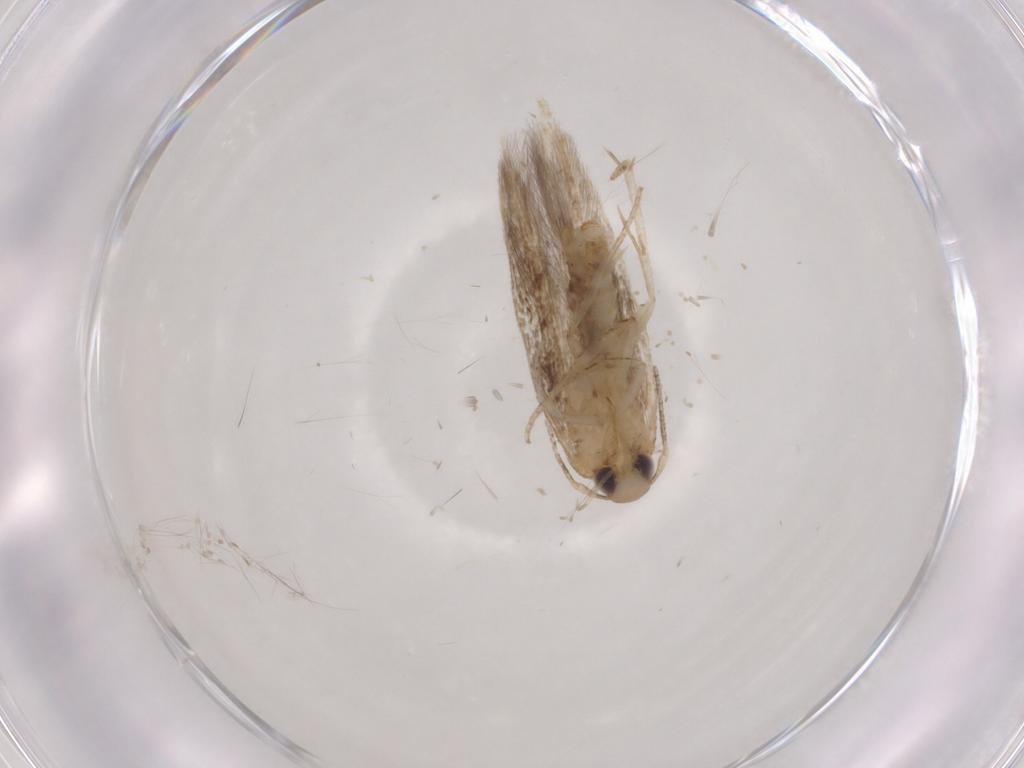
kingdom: Animalia
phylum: Arthropoda
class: Insecta
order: Lepidoptera
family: Cosmopterigidae
